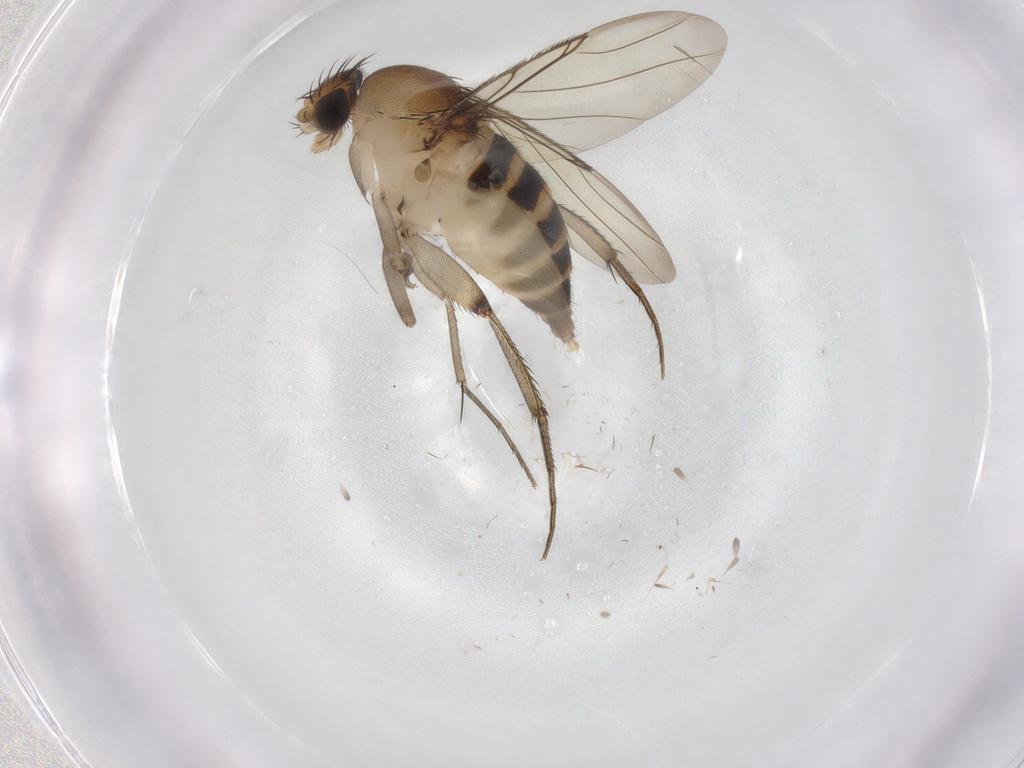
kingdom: Animalia
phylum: Arthropoda
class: Insecta
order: Diptera
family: Phoridae
